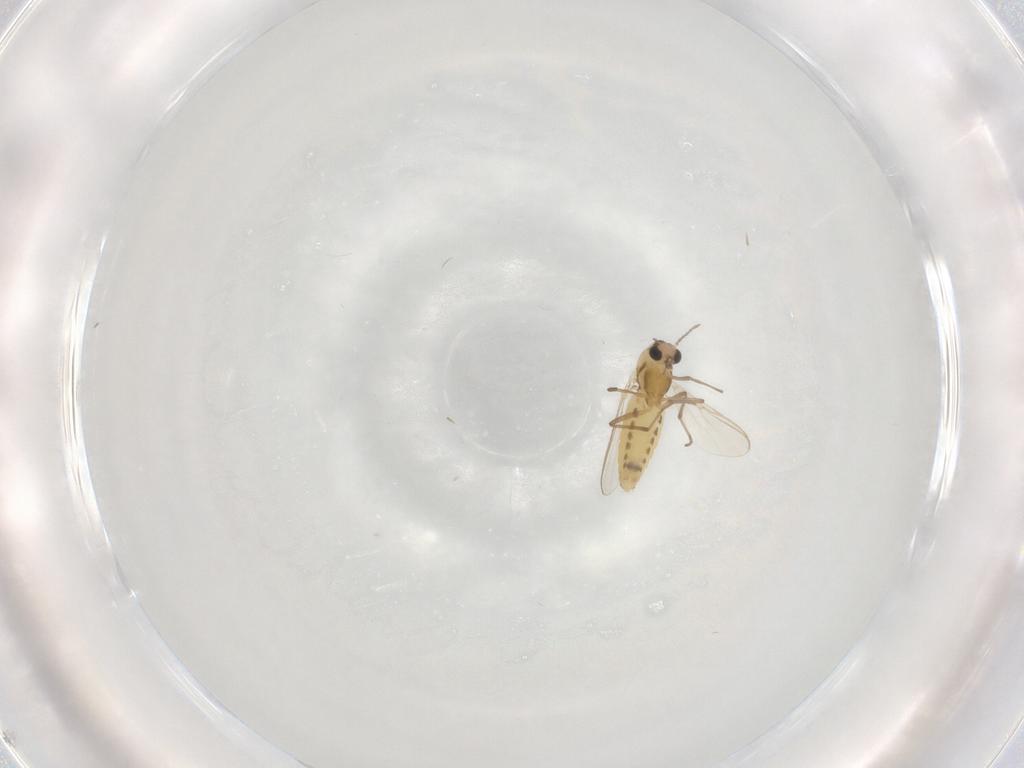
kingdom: Animalia
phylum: Arthropoda
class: Insecta
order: Diptera
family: Chironomidae
